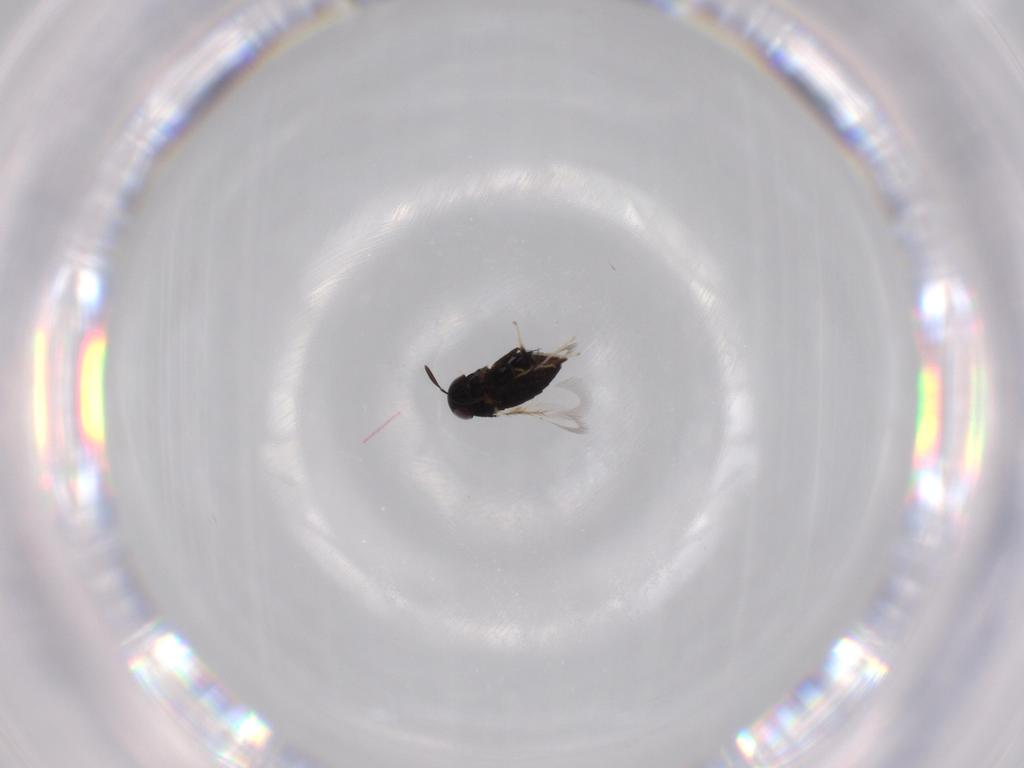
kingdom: Animalia
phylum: Arthropoda
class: Insecta
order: Hymenoptera
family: Signiphoridae
